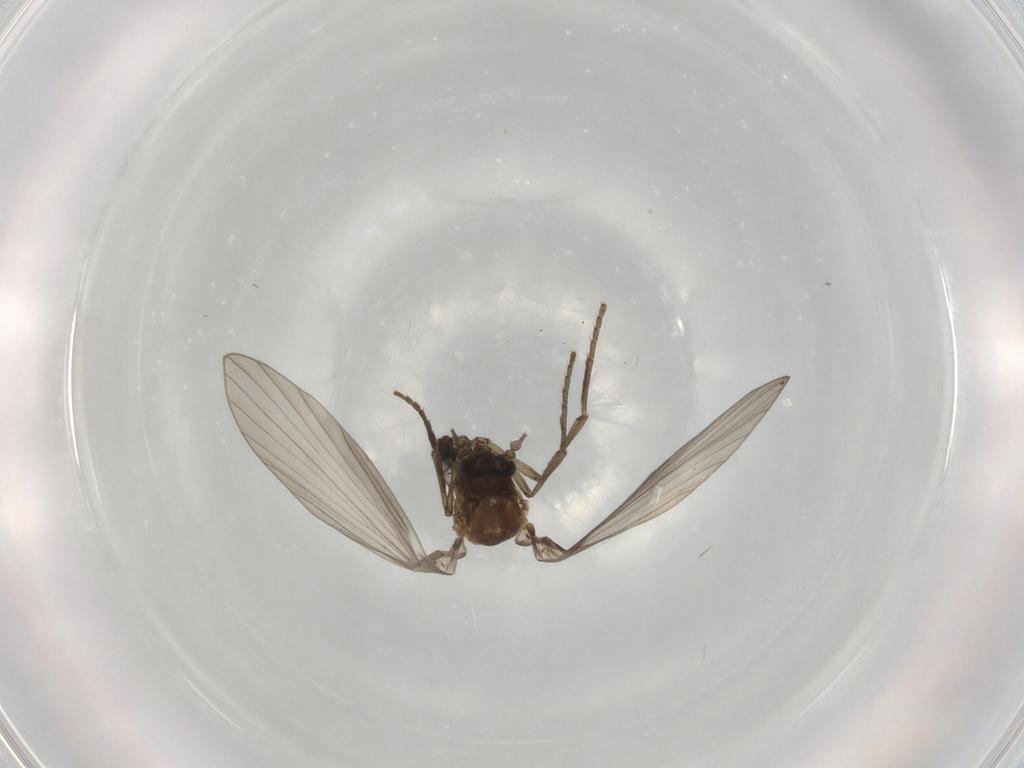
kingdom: Animalia
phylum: Arthropoda
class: Insecta
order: Diptera
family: Psychodidae
